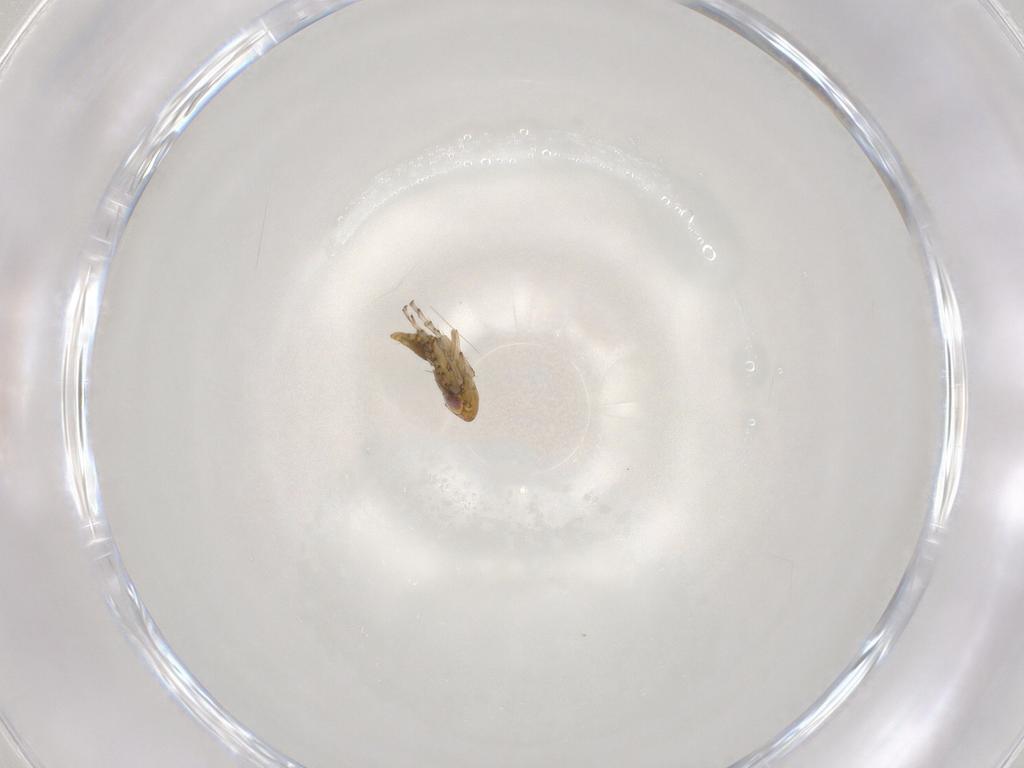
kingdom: Animalia
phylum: Arthropoda
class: Insecta
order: Hemiptera
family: Cicadellidae
